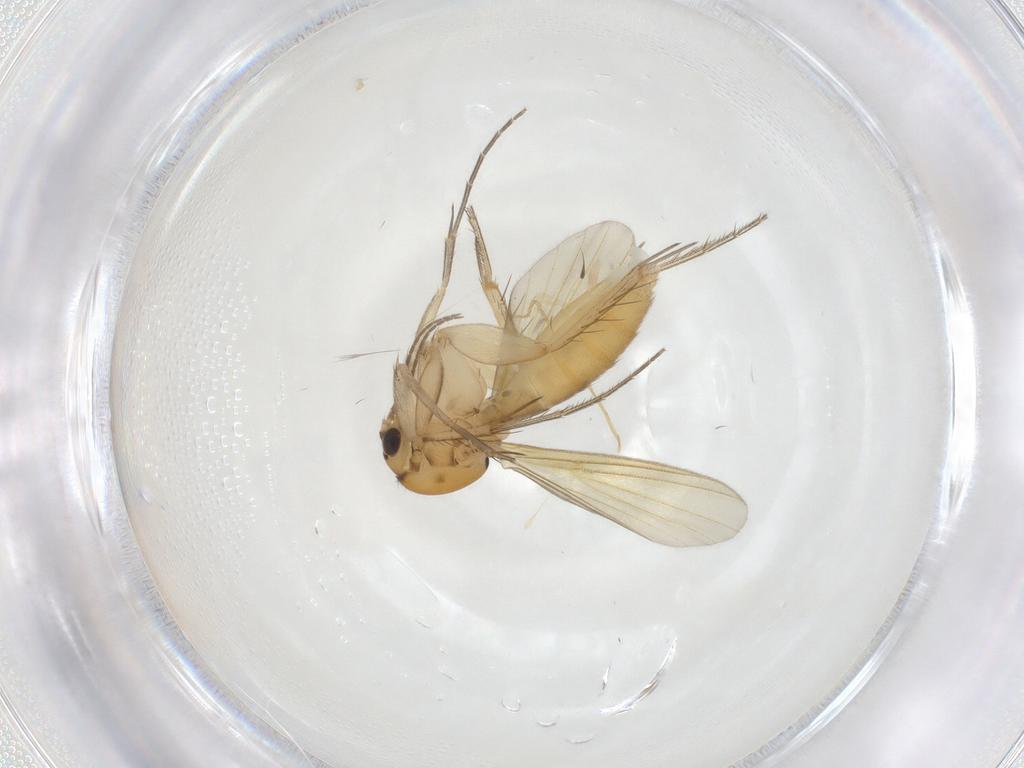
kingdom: Animalia
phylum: Arthropoda
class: Insecta
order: Diptera
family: Mycetophilidae
